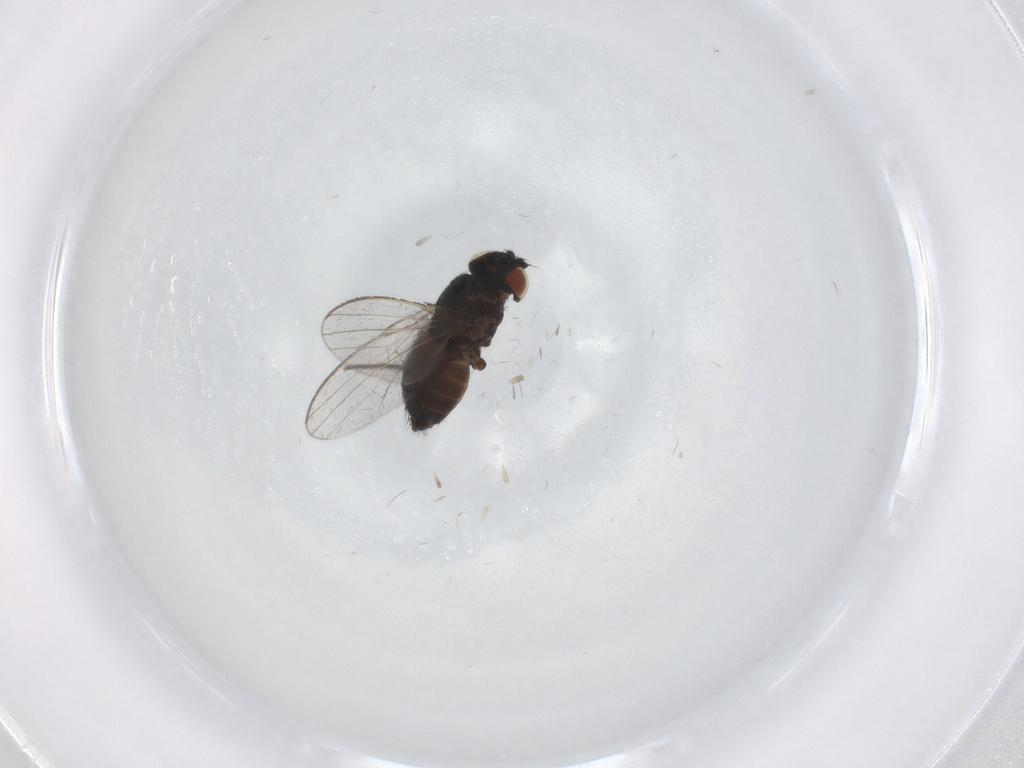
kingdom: Animalia
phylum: Arthropoda
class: Insecta
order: Diptera
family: Milichiidae
